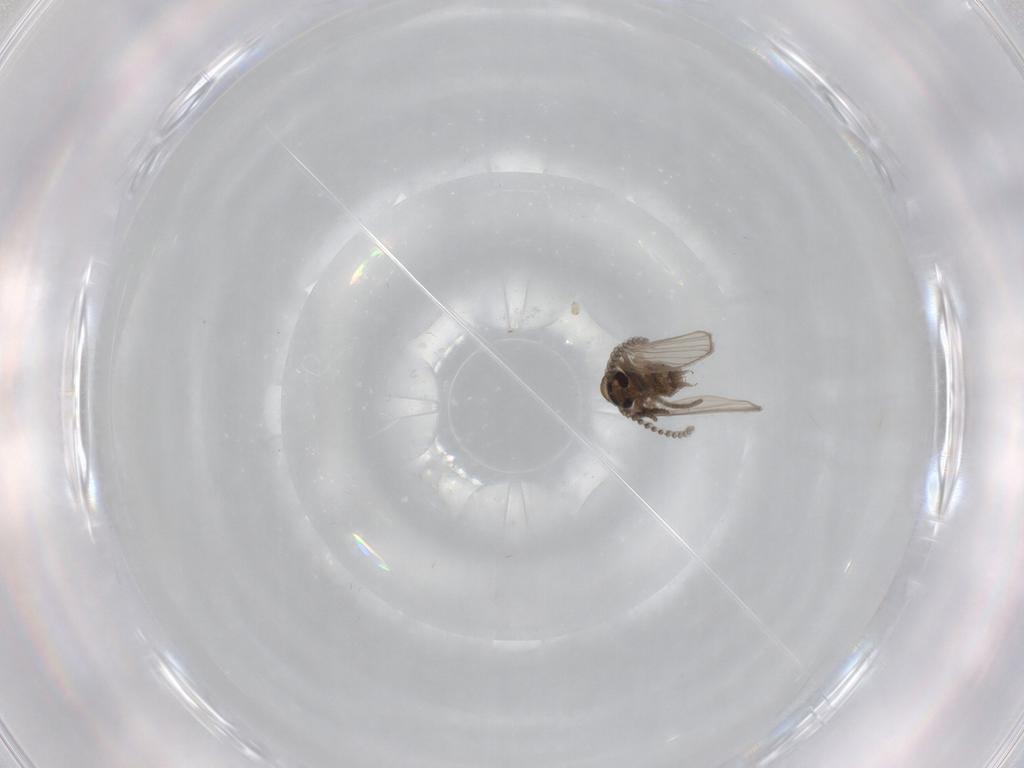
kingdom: Animalia
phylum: Arthropoda
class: Insecta
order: Diptera
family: Psychodidae
